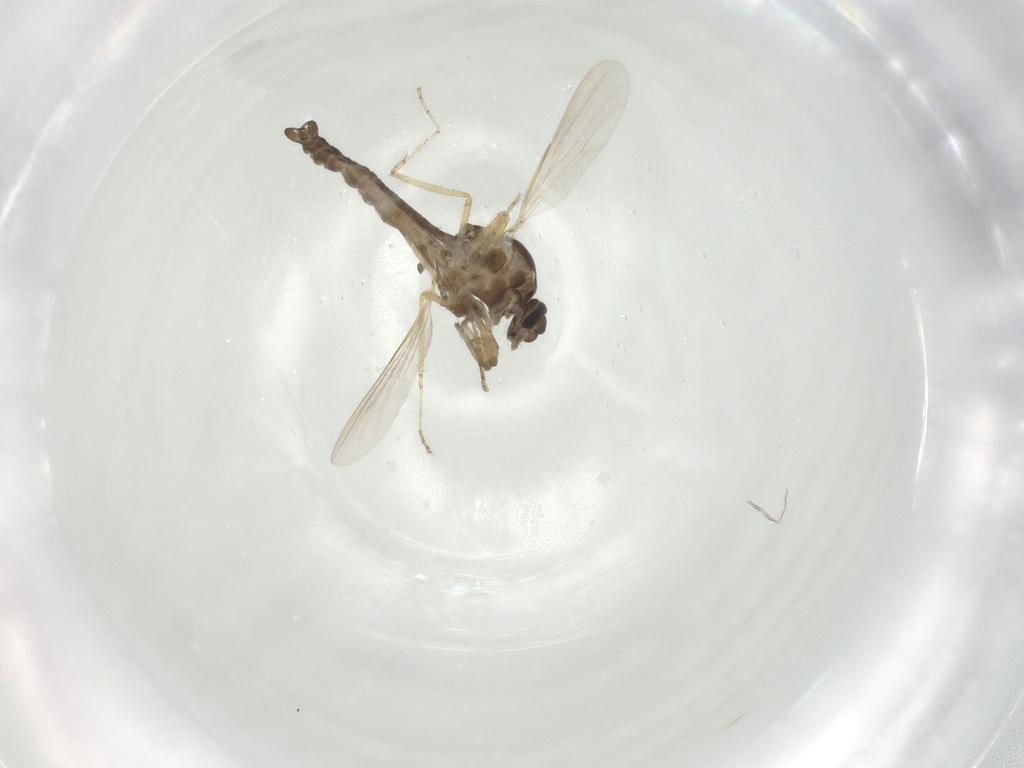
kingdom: Animalia
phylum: Arthropoda
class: Insecta
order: Diptera
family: Ceratopogonidae
